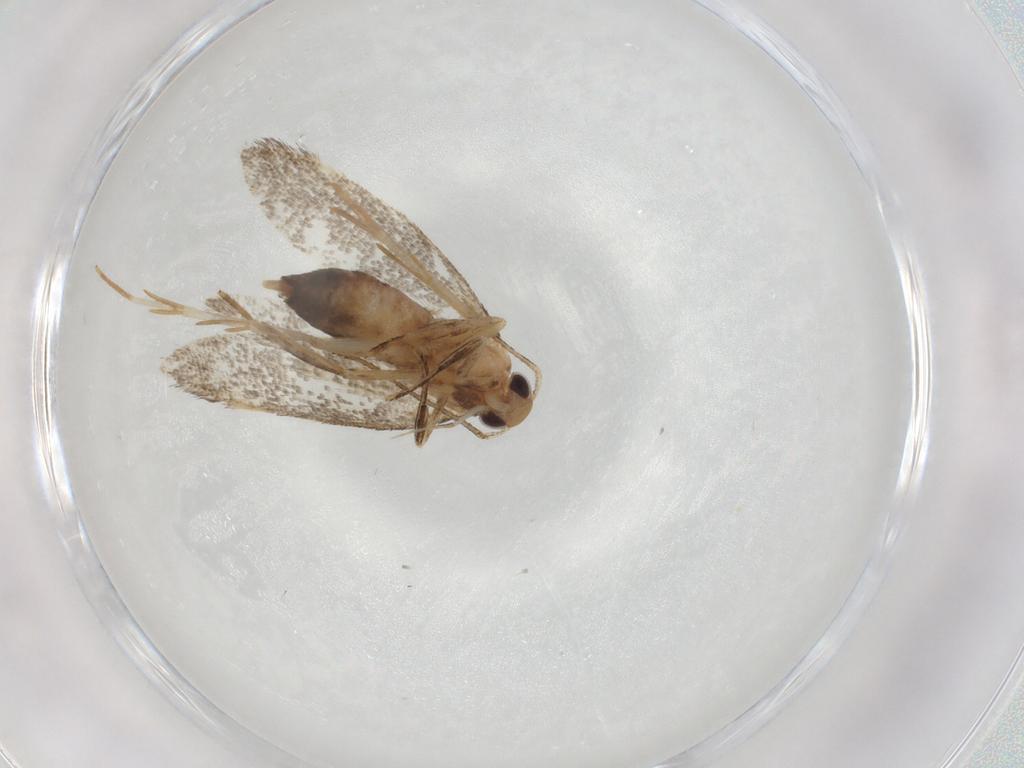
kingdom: Animalia
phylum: Arthropoda
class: Insecta
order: Lepidoptera
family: Cosmopterigidae
